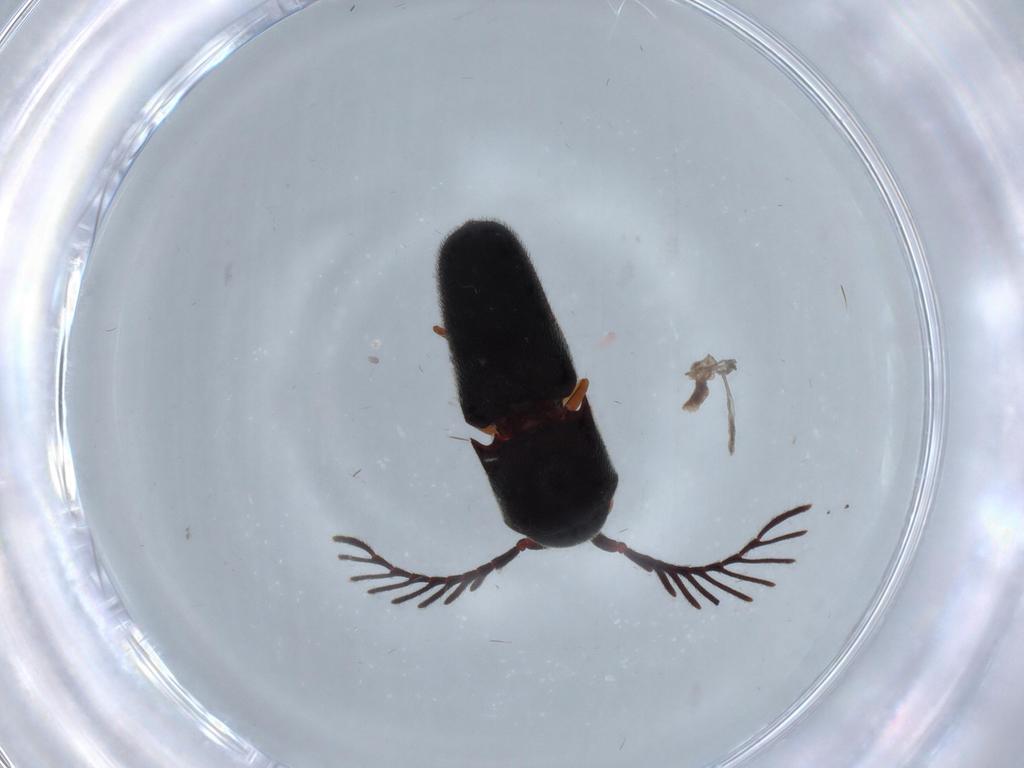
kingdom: Animalia
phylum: Arthropoda
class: Insecta
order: Coleoptera
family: Eucnemidae
